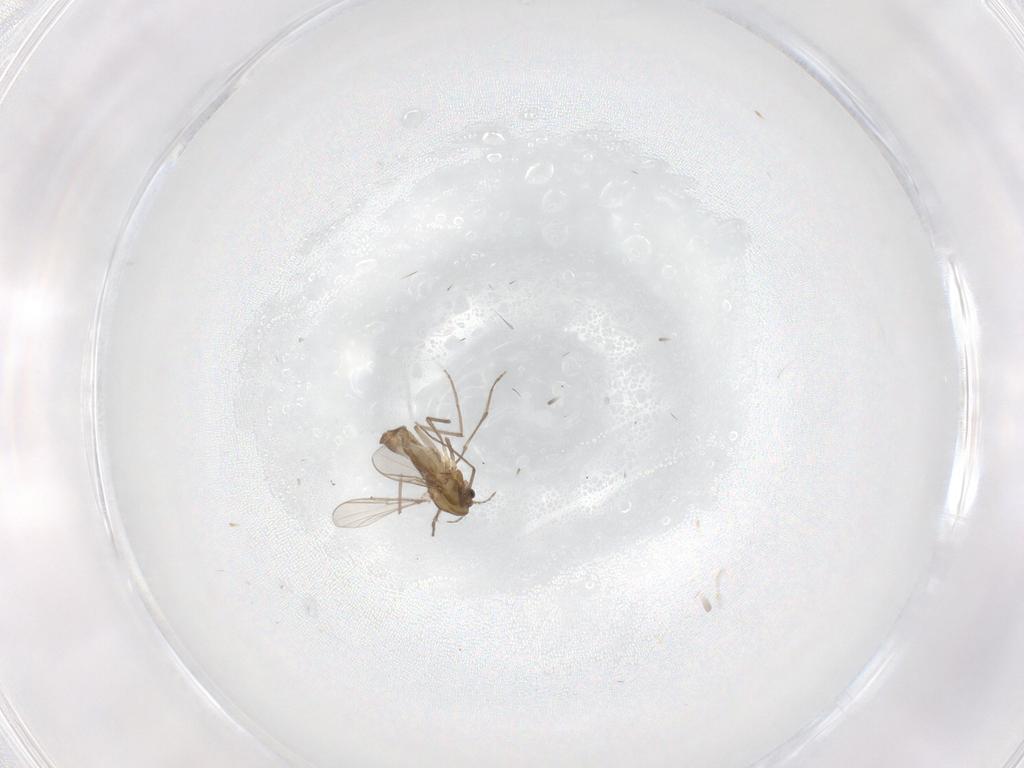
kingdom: Animalia
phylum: Arthropoda
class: Insecta
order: Diptera
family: Chironomidae
